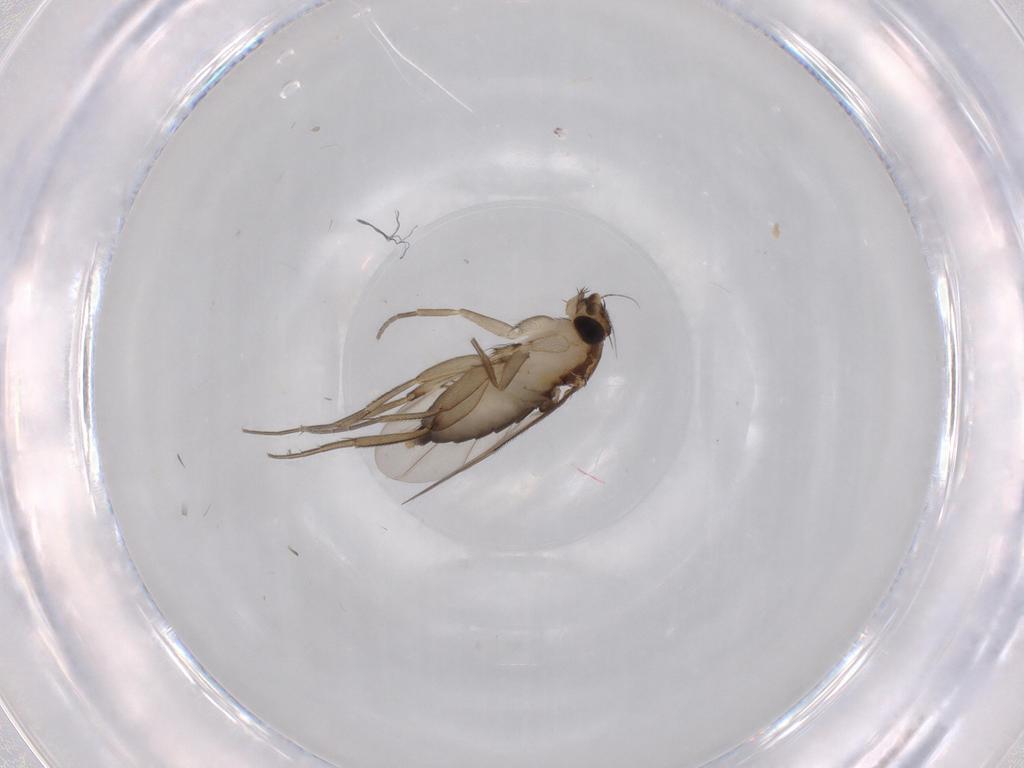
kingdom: Animalia
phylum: Arthropoda
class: Insecta
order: Diptera
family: Phoridae
